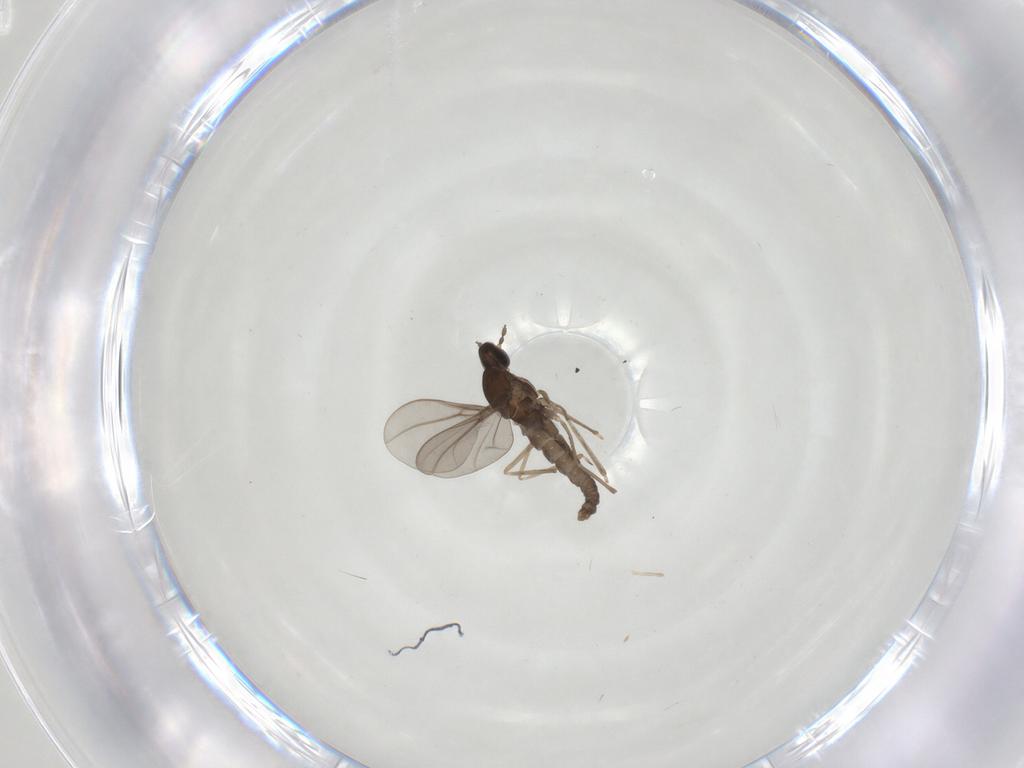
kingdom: Animalia
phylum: Arthropoda
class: Insecta
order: Diptera
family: Cecidomyiidae
